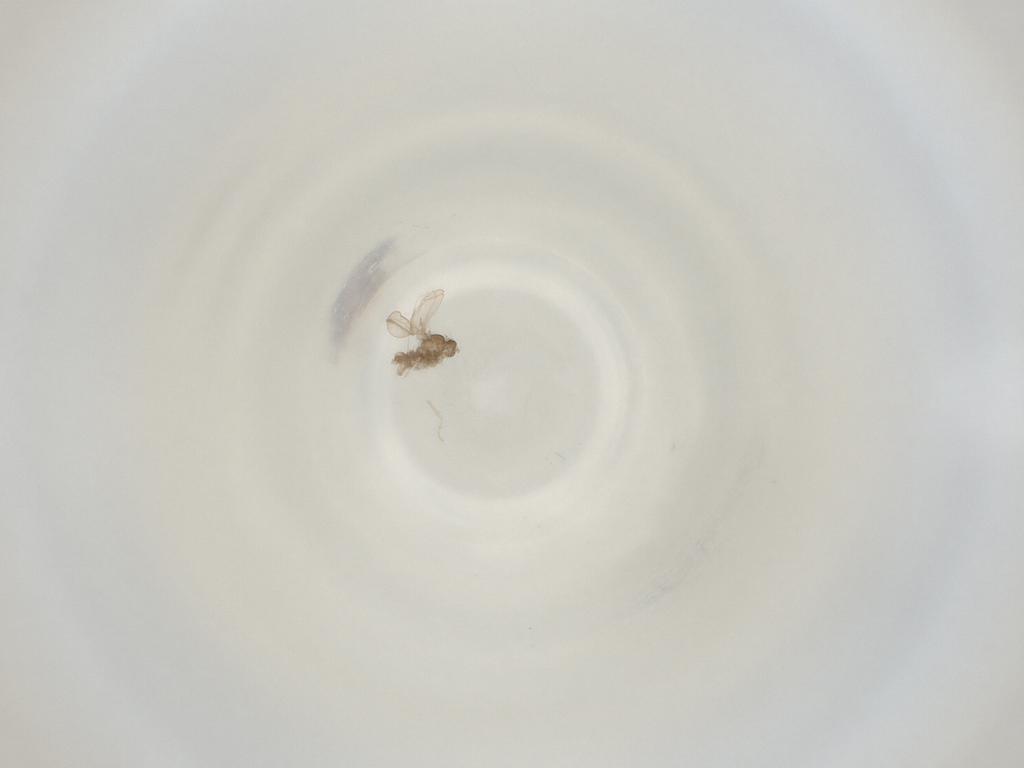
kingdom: Animalia
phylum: Arthropoda
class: Insecta
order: Diptera
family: Cecidomyiidae
